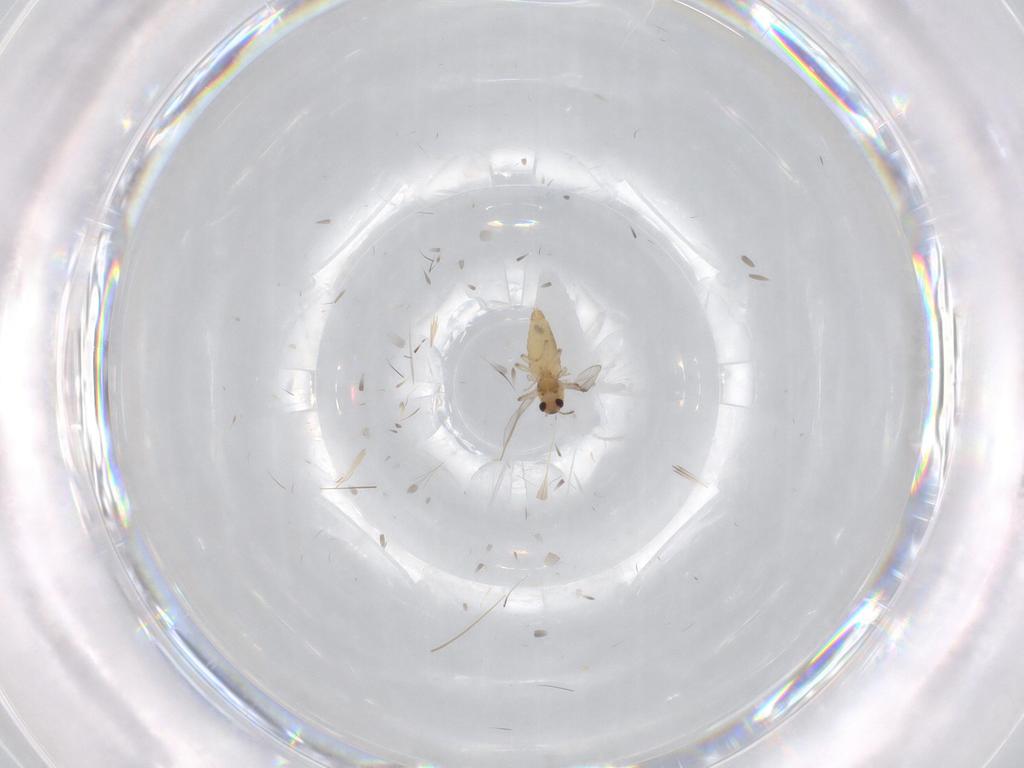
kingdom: Animalia
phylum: Arthropoda
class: Insecta
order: Diptera
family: Chironomidae
